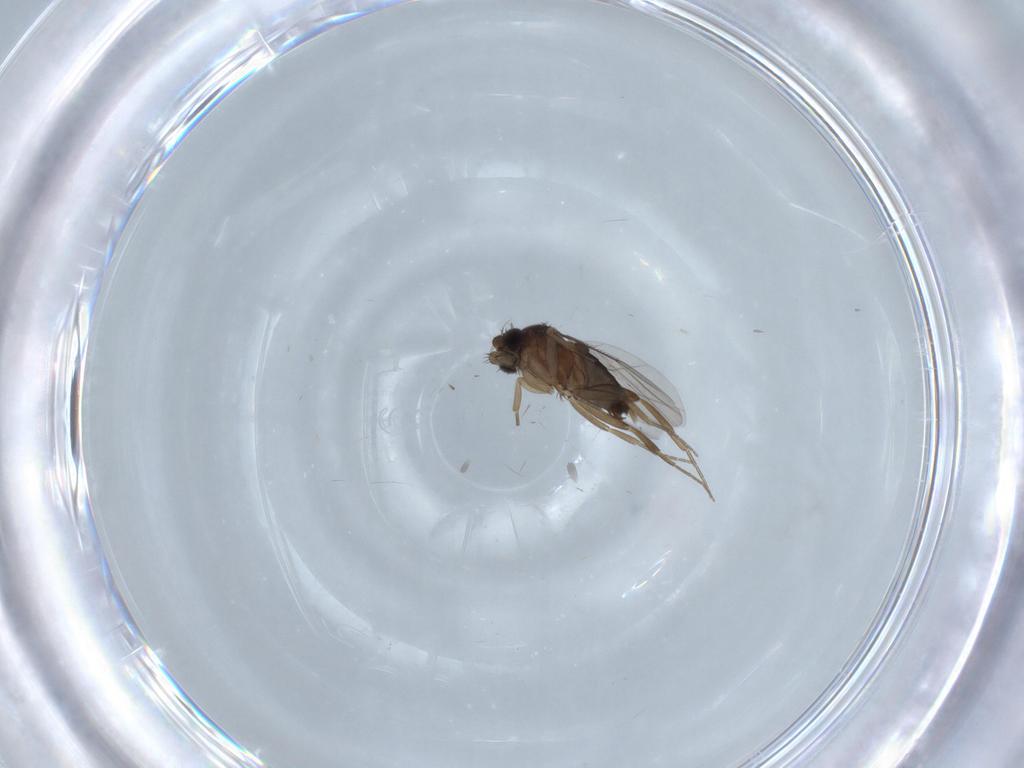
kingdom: Animalia
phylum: Arthropoda
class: Insecta
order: Diptera
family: Phoridae
